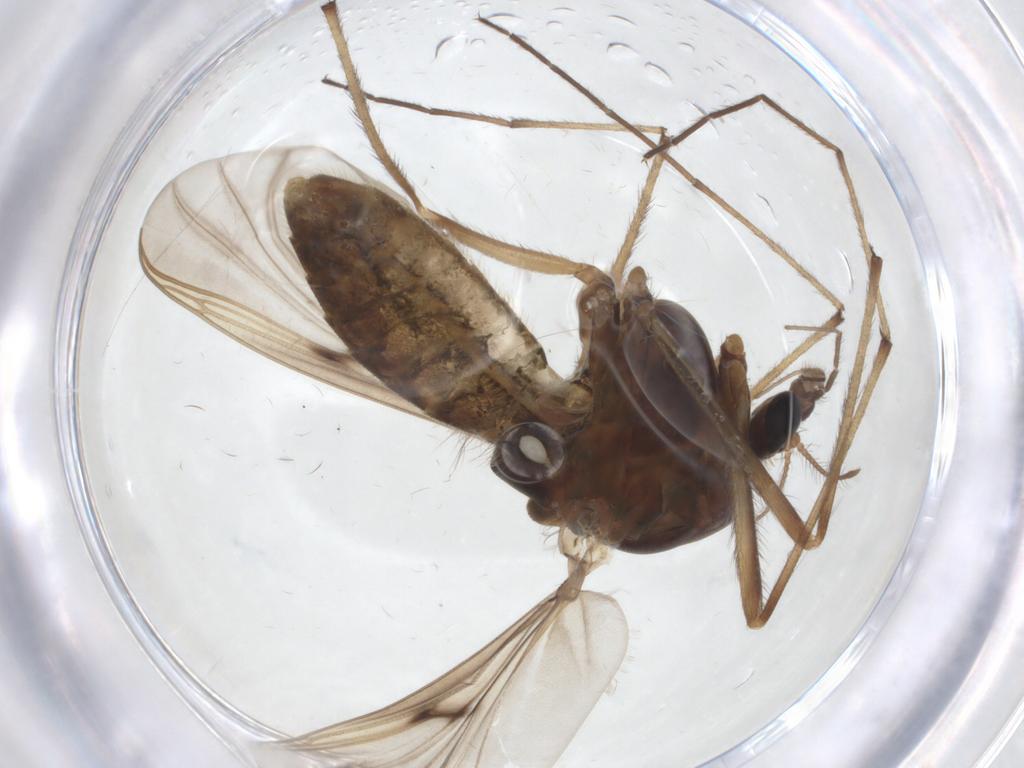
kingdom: Animalia
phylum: Arthropoda
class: Insecta
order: Diptera
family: Chironomidae
